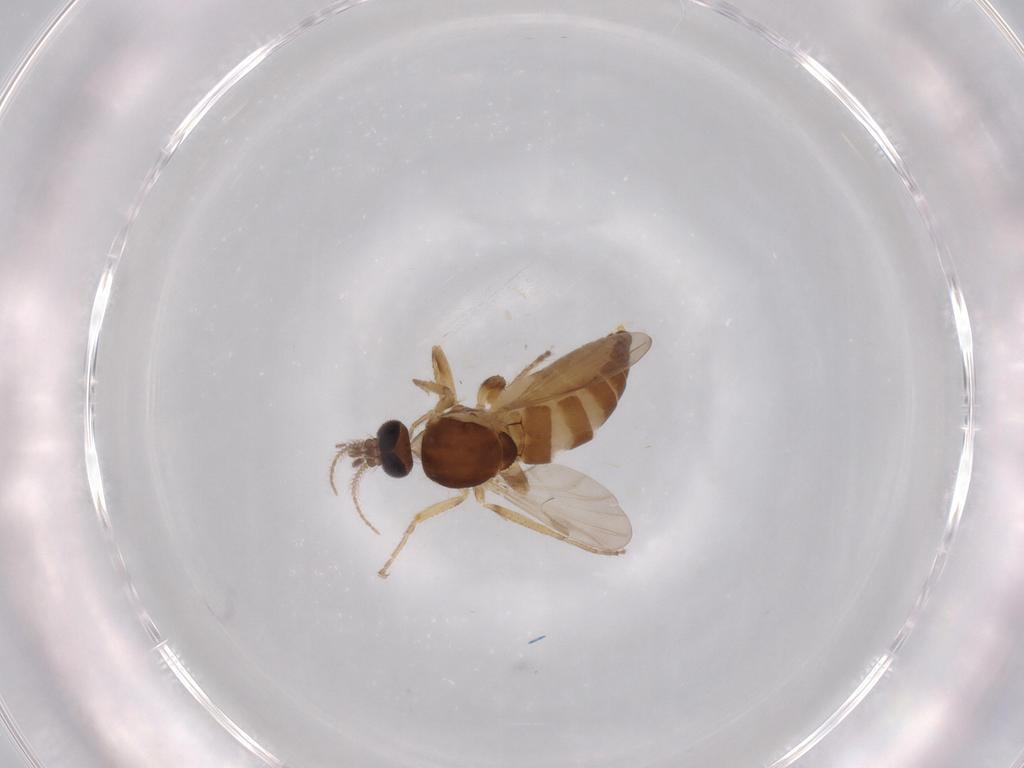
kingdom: Animalia
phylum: Arthropoda
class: Insecta
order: Diptera
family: Ceratopogonidae
